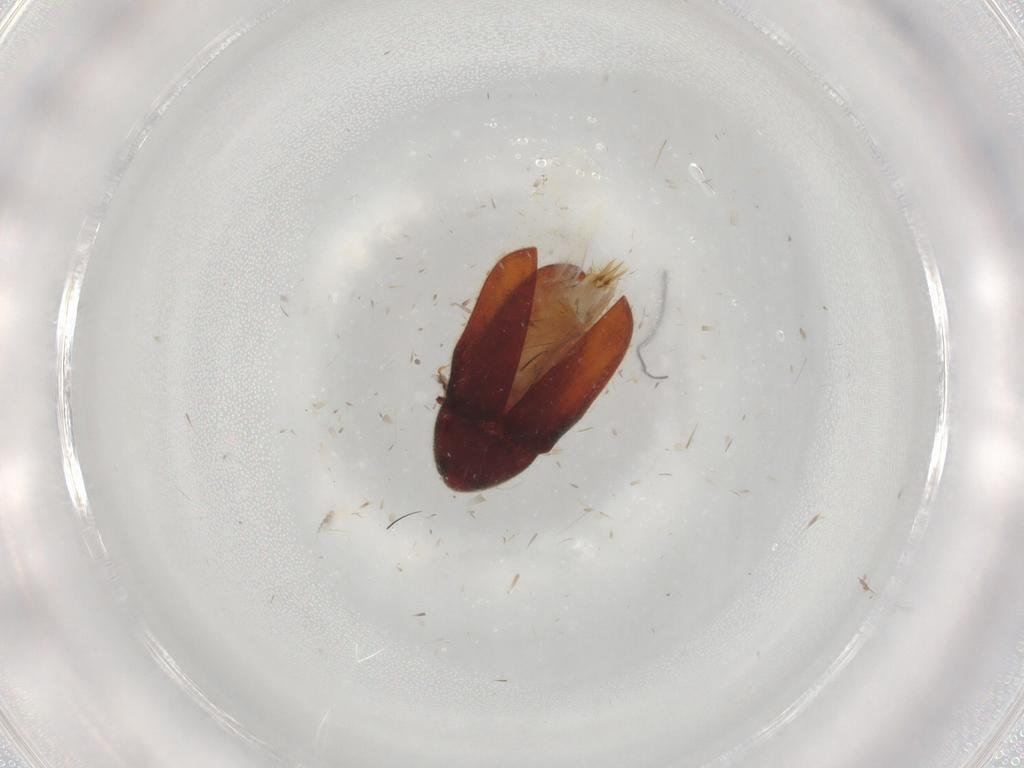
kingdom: Animalia
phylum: Arthropoda
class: Insecta
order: Coleoptera
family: Throscidae
